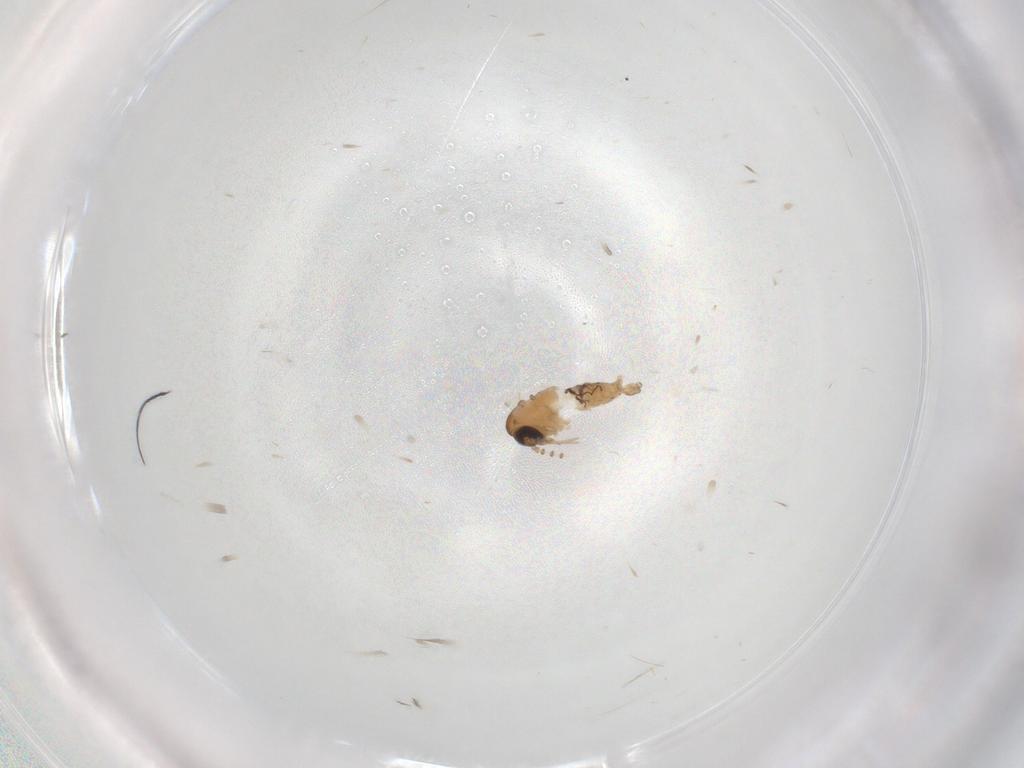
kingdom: Animalia
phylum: Arthropoda
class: Insecta
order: Diptera
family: Psychodidae
